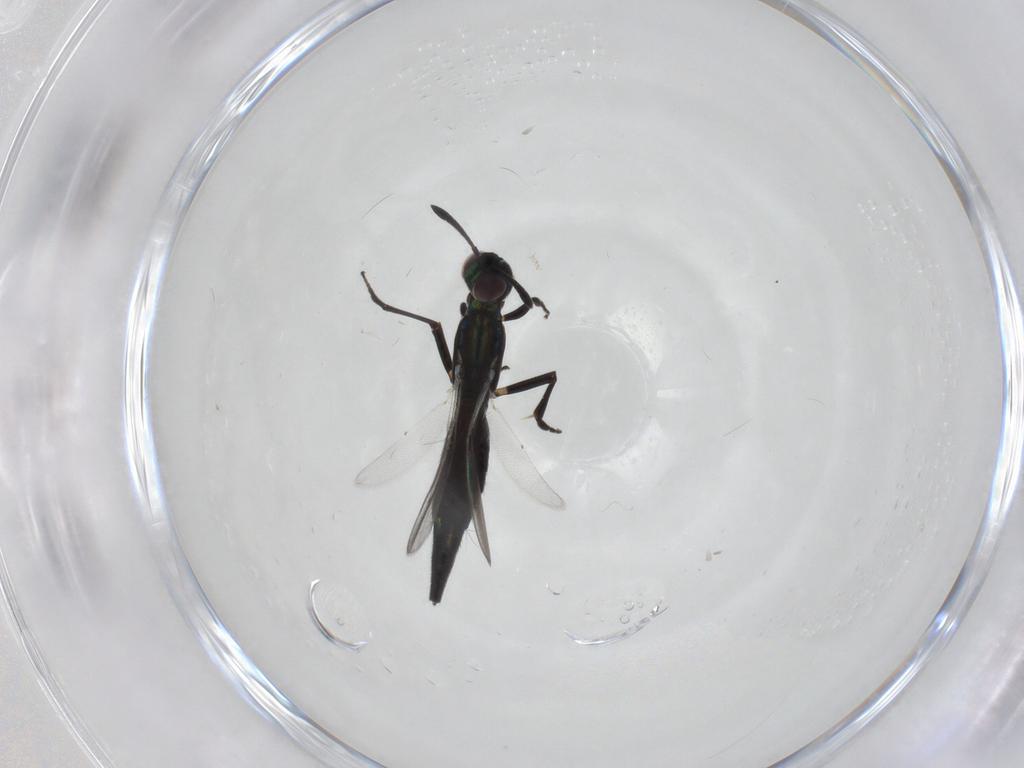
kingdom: Animalia
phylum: Arthropoda
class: Insecta
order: Hymenoptera
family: Eupelmidae
